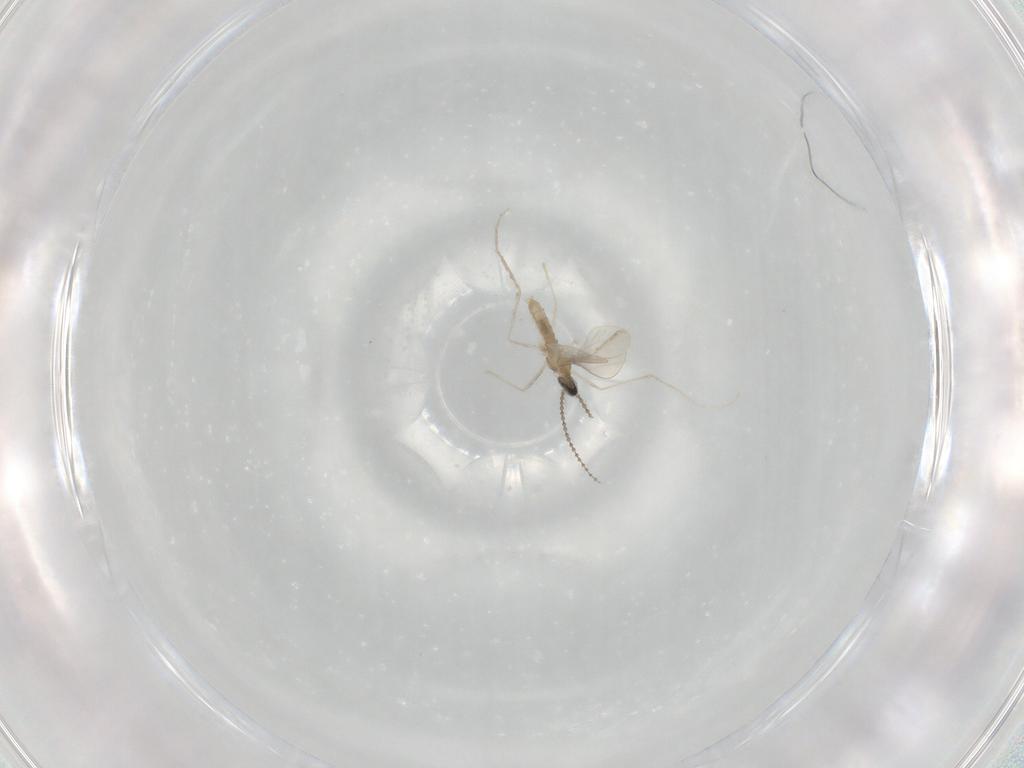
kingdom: Animalia
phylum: Arthropoda
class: Insecta
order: Diptera
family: Cecidomyiidae
